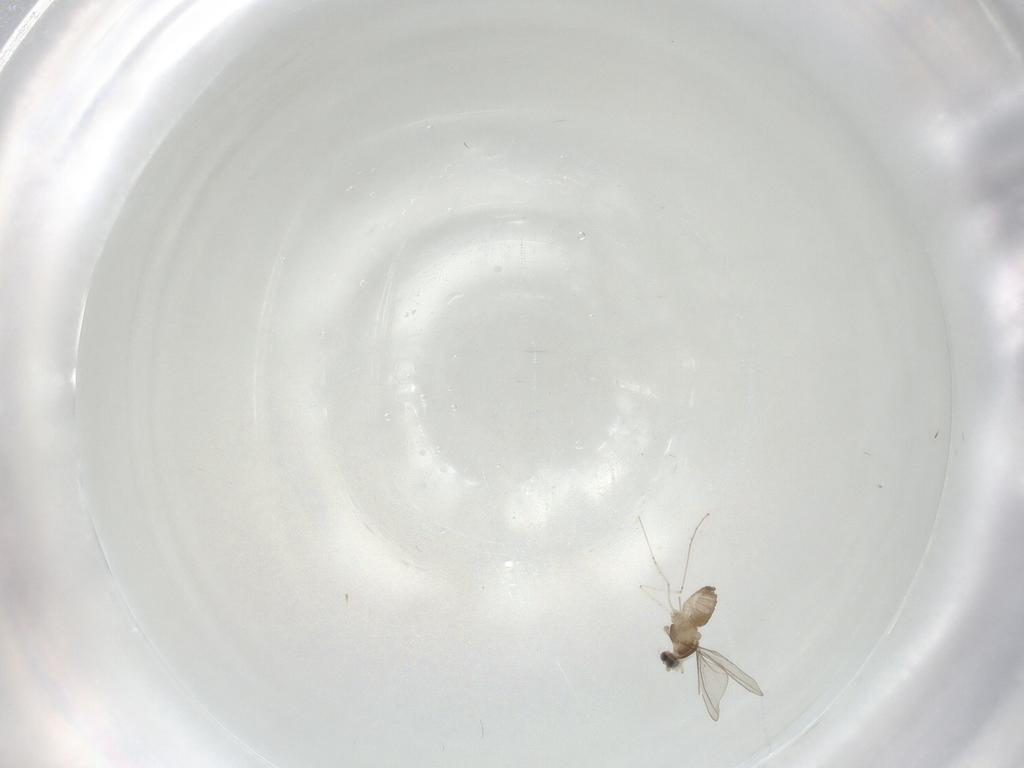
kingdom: Animalia
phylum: Arthropoda
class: Insecta
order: Diptera
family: Cecidomyiidae
